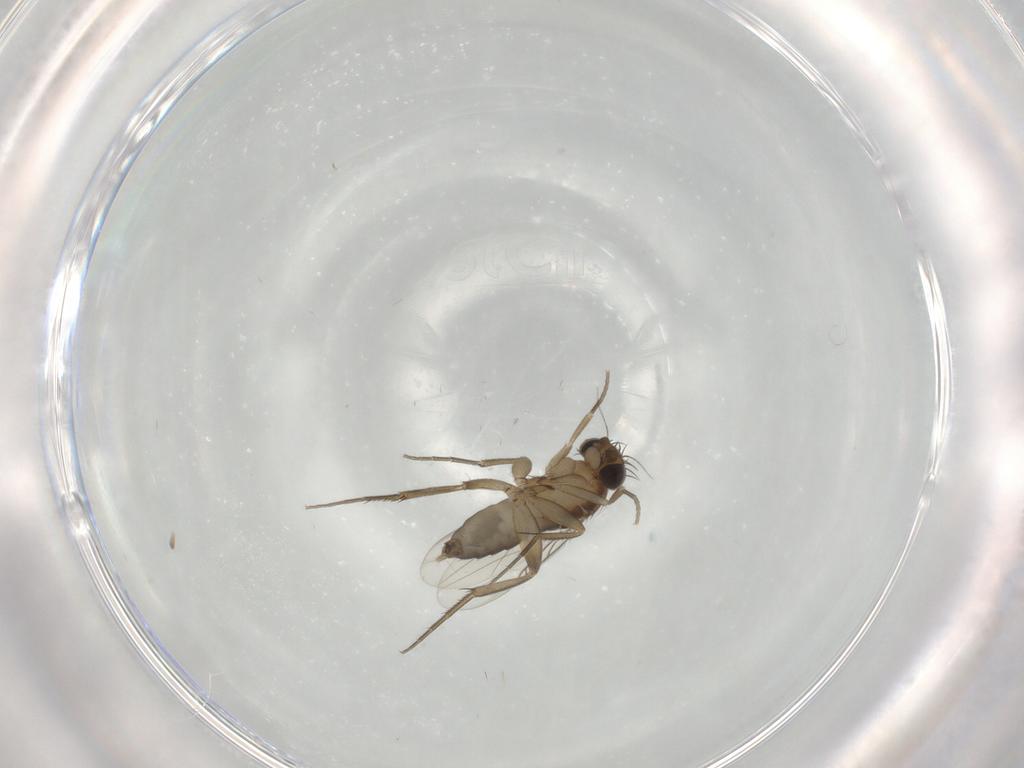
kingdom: Animalia
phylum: Arthropoda
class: Insecta
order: Diptera
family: Phoridae
